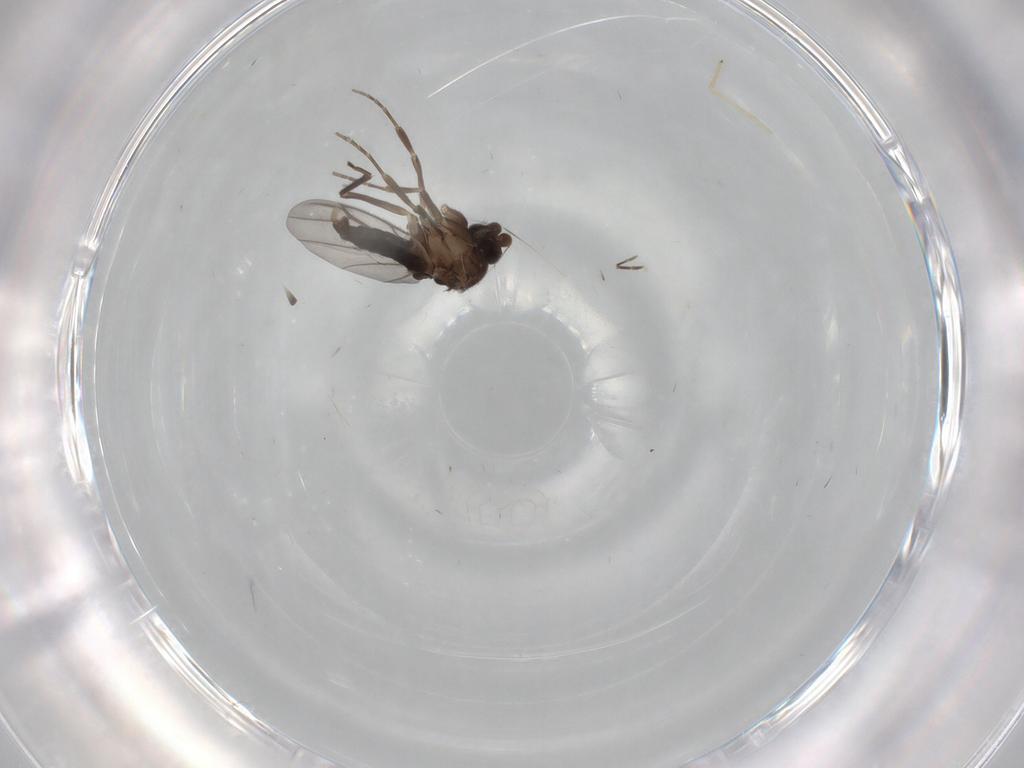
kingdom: Animalia
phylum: Arthropoda
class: Insecta
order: Diptera
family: Chironomidae
